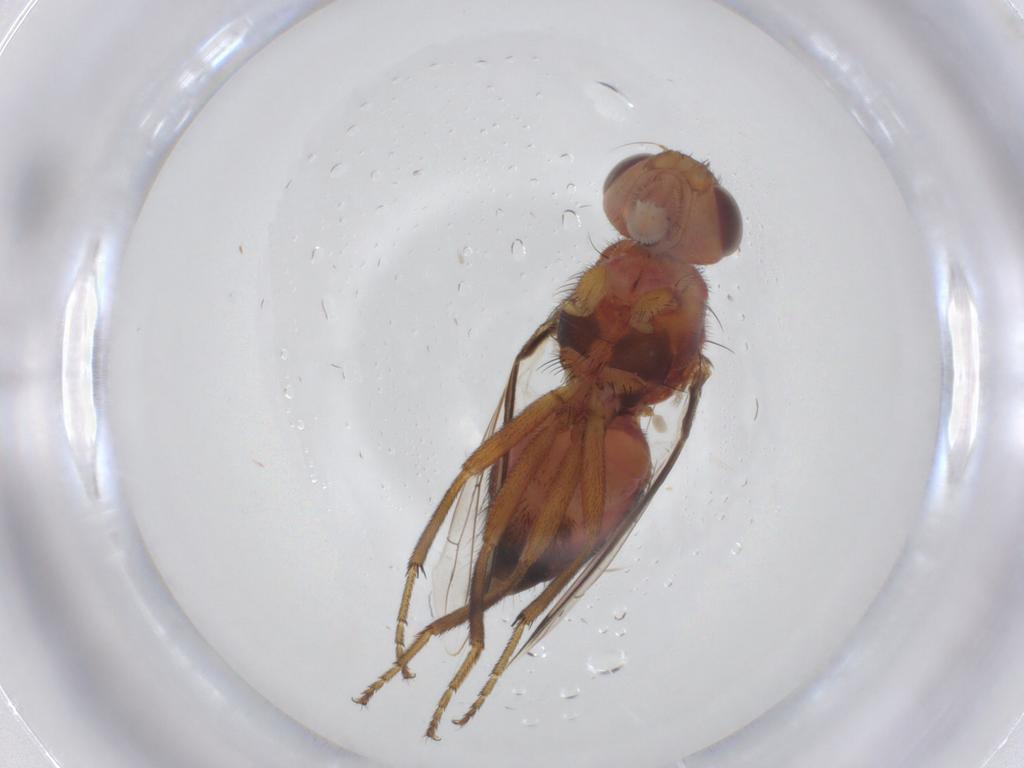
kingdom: Animalia
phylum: Arthropoda
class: Insecta
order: Diptera
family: Richardiidae
